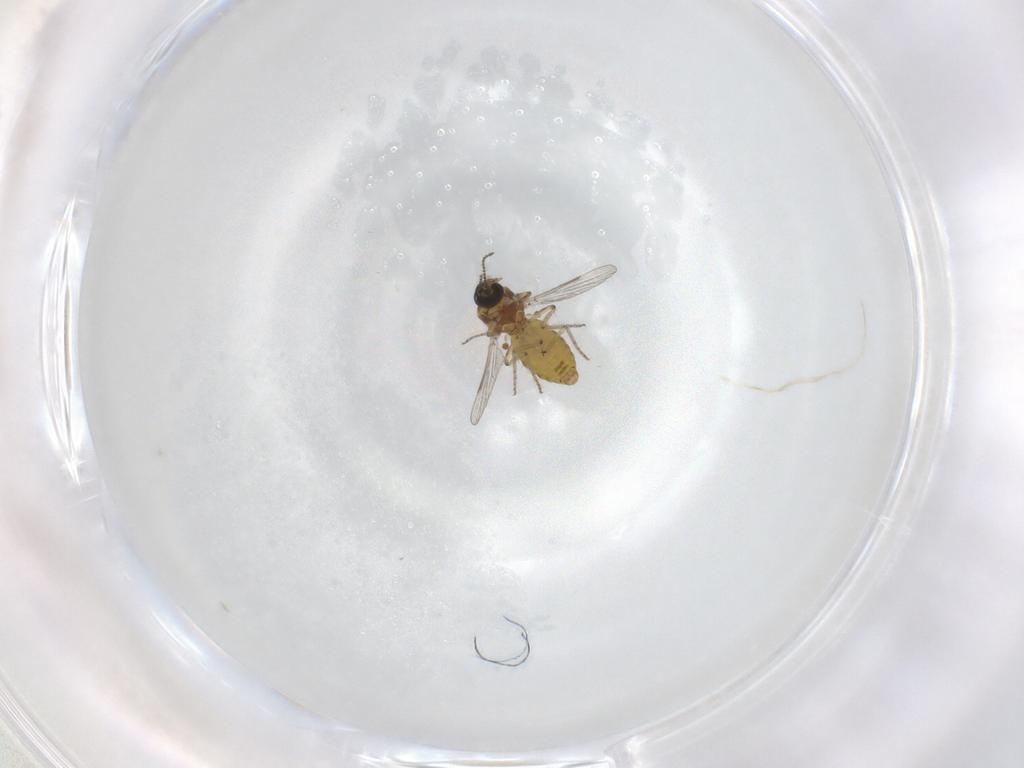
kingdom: Animalia
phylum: Arthropoda
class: Insecta
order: Diptera
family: Ceratopogonidae
